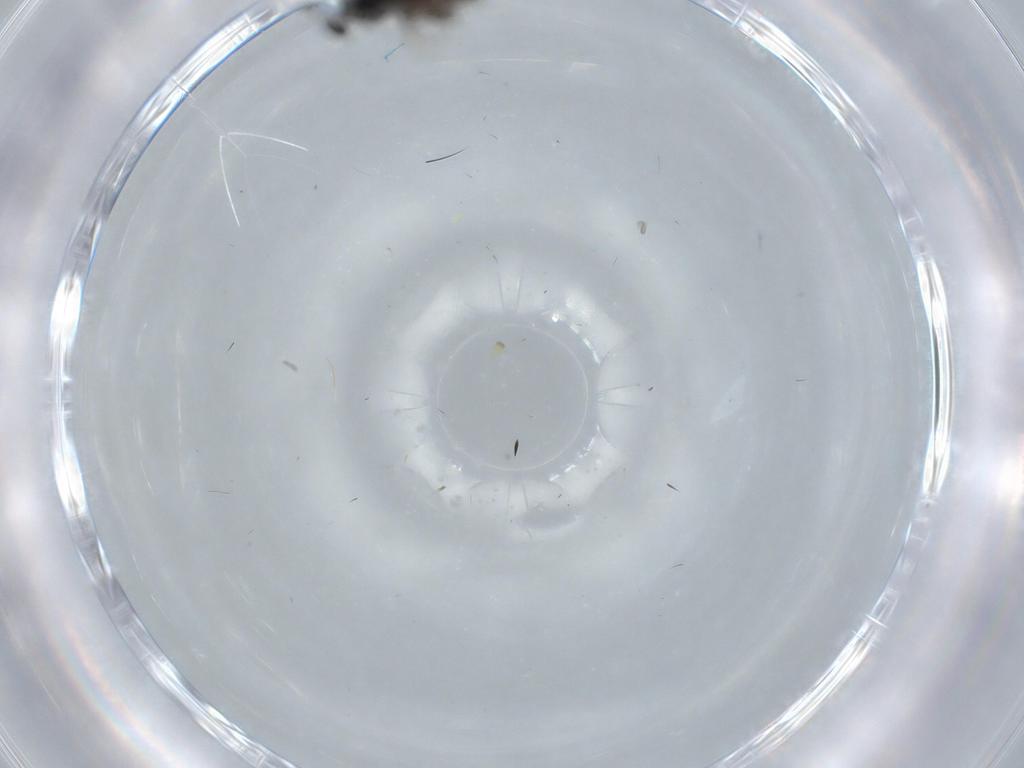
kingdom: Animalia
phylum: Arthropoda
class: Insecta
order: Hymenoptera
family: Scelionidae
